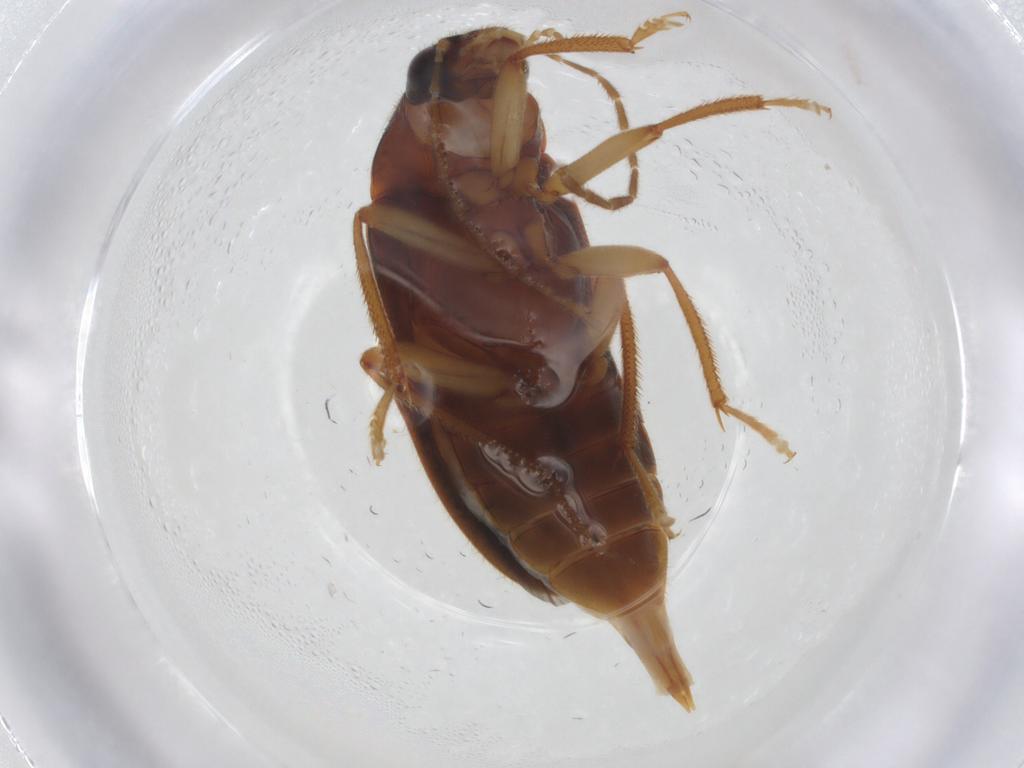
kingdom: Animalia
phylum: Arthropoda
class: Insecta
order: Coleoptera
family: Ptilodactylidae
